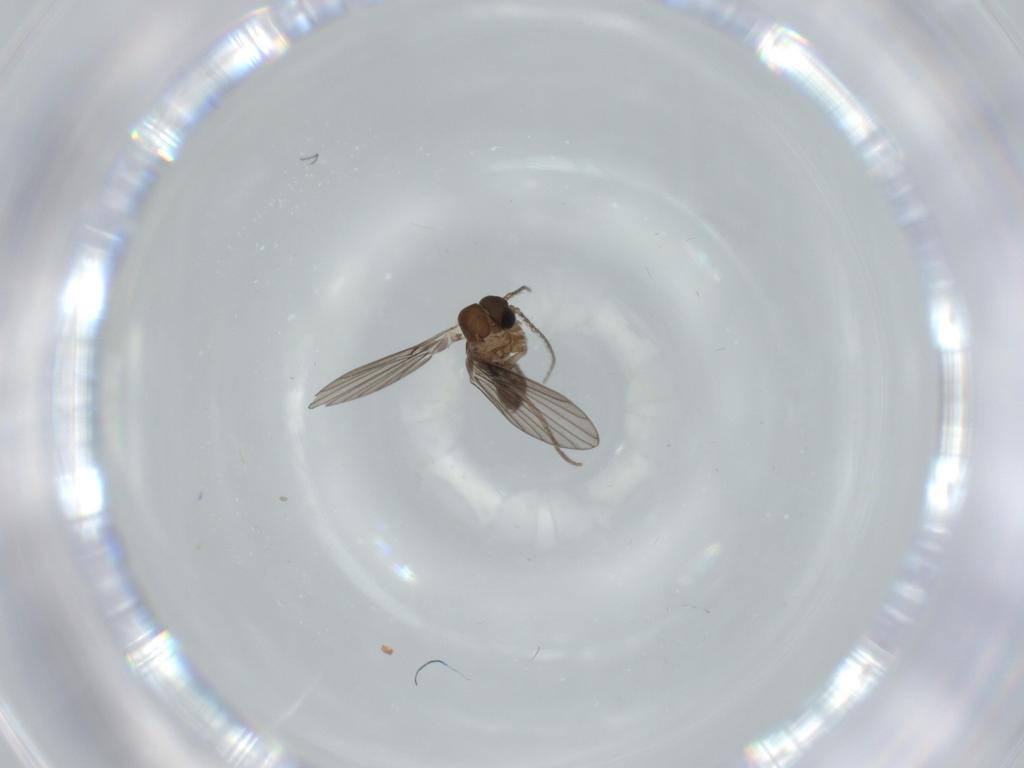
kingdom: Animalia
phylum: Arthropoda
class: Insecta
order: Diptera
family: Psychodidae
